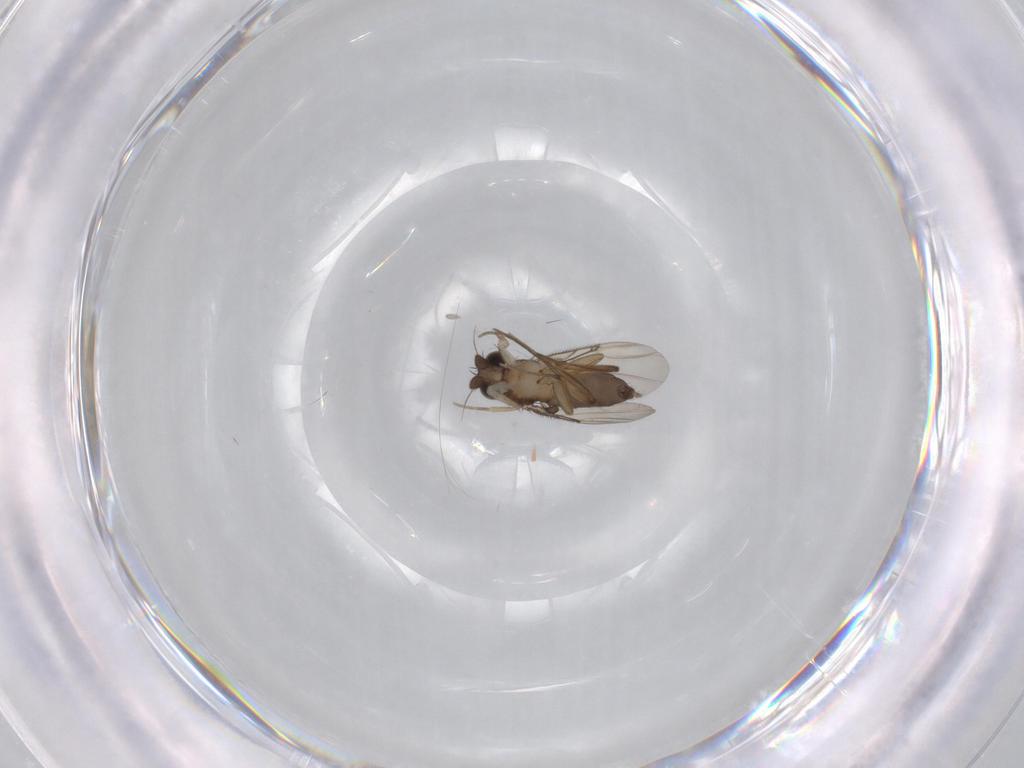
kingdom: Animalia
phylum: Arthropoda
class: Insecta
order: Diptera
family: Phoridae
